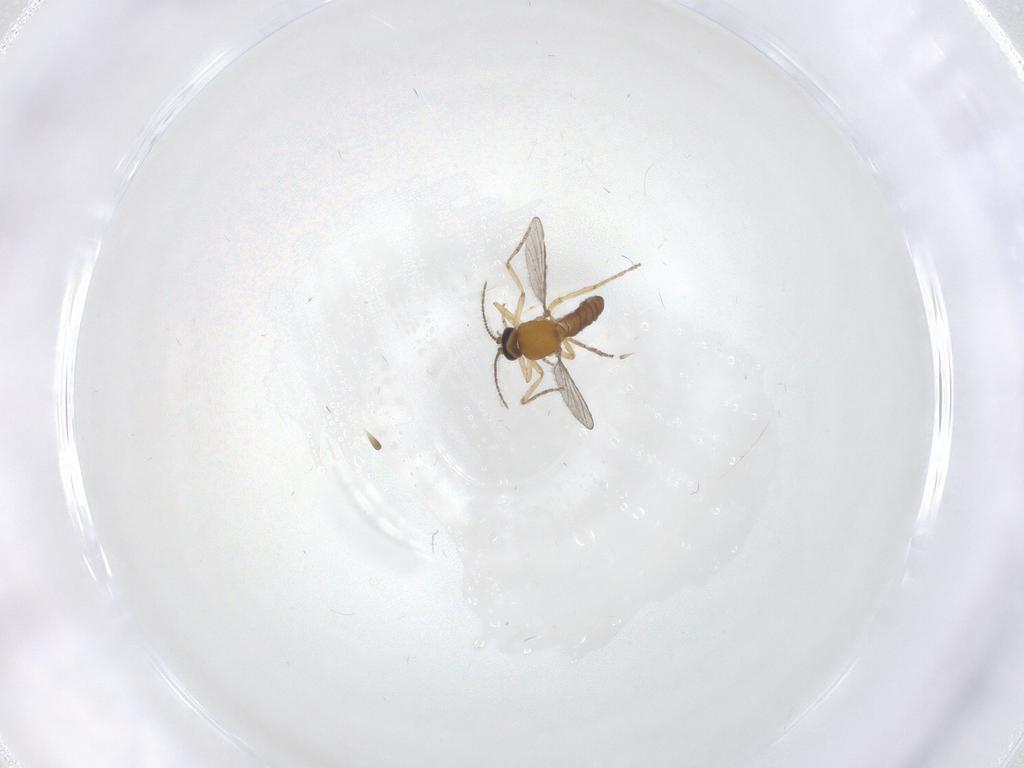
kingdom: Animalia
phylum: Arthropoda
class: Insecta
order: Diptera
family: Ceratopogonidae
